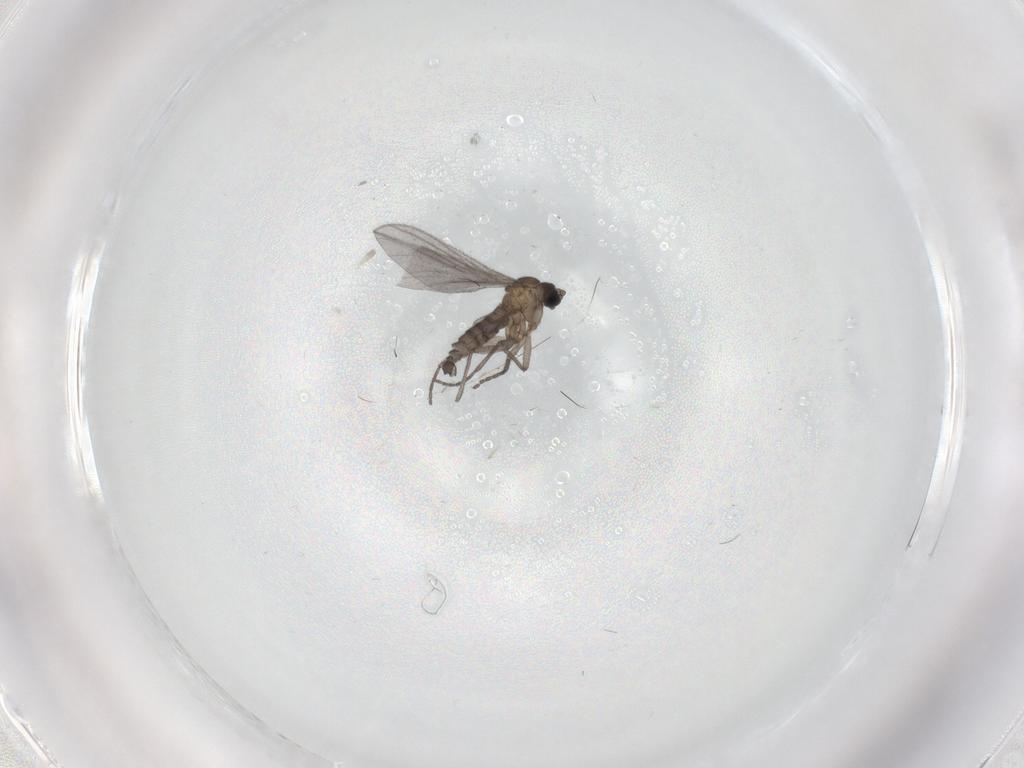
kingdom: Animalia
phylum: Arthropoda
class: Insecta
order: Diptera
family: Sciaridae
